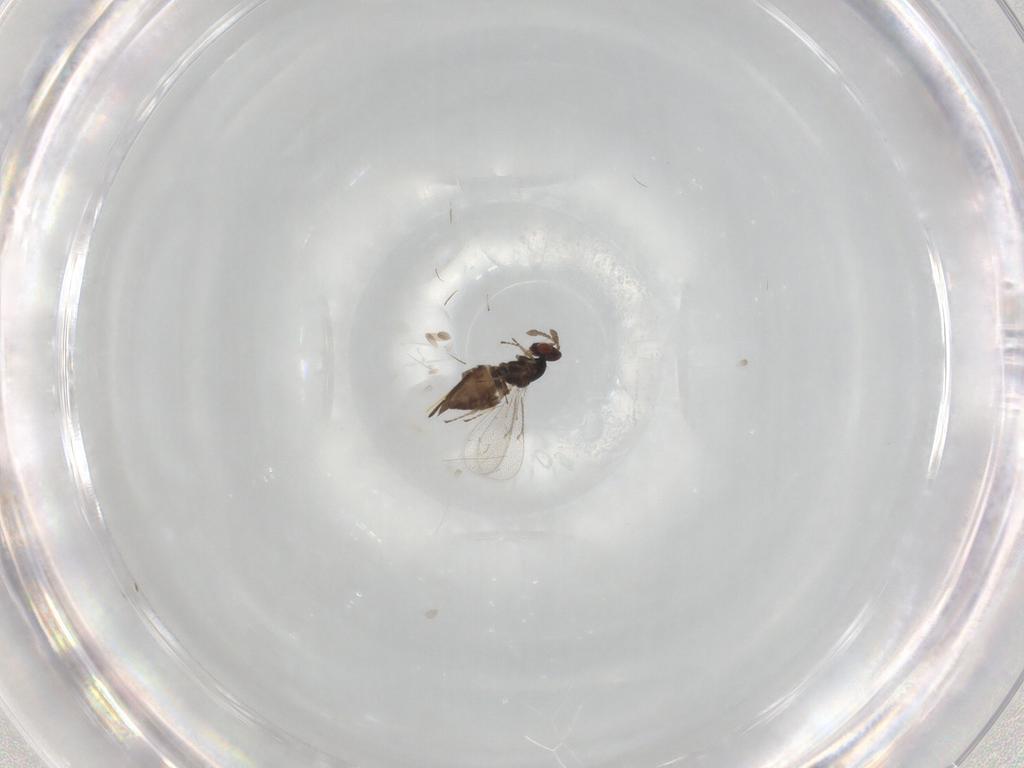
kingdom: Animalia
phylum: Arthropoda
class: Insecta
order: Hymenoptera
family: Eulophidae
